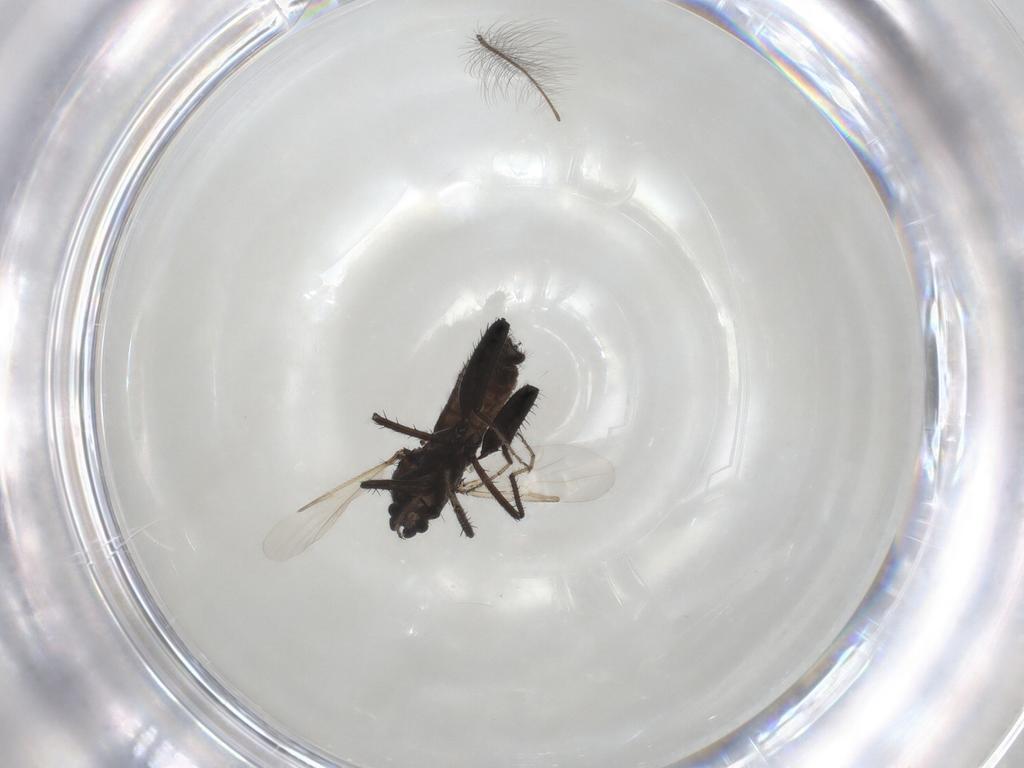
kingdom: Animalia
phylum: Arthropoda
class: Insecta
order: Diptera
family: Ceratopogonidae
